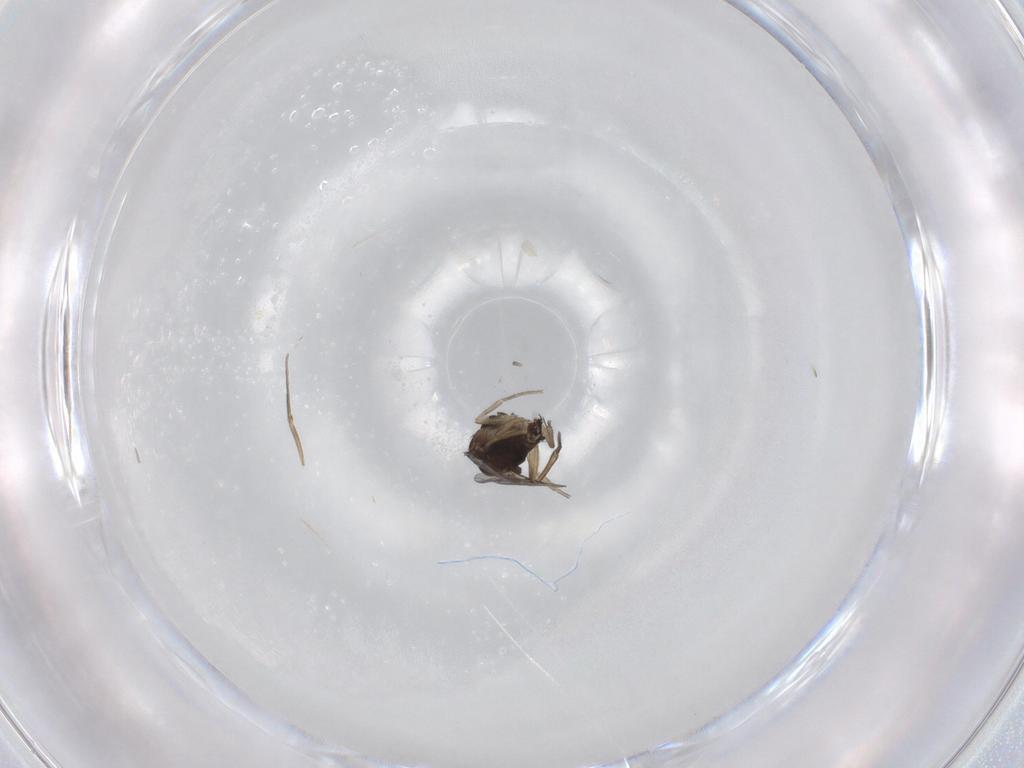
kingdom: Animalia
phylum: Arthropoda
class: Insecta
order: Diptera
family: Phoridae
